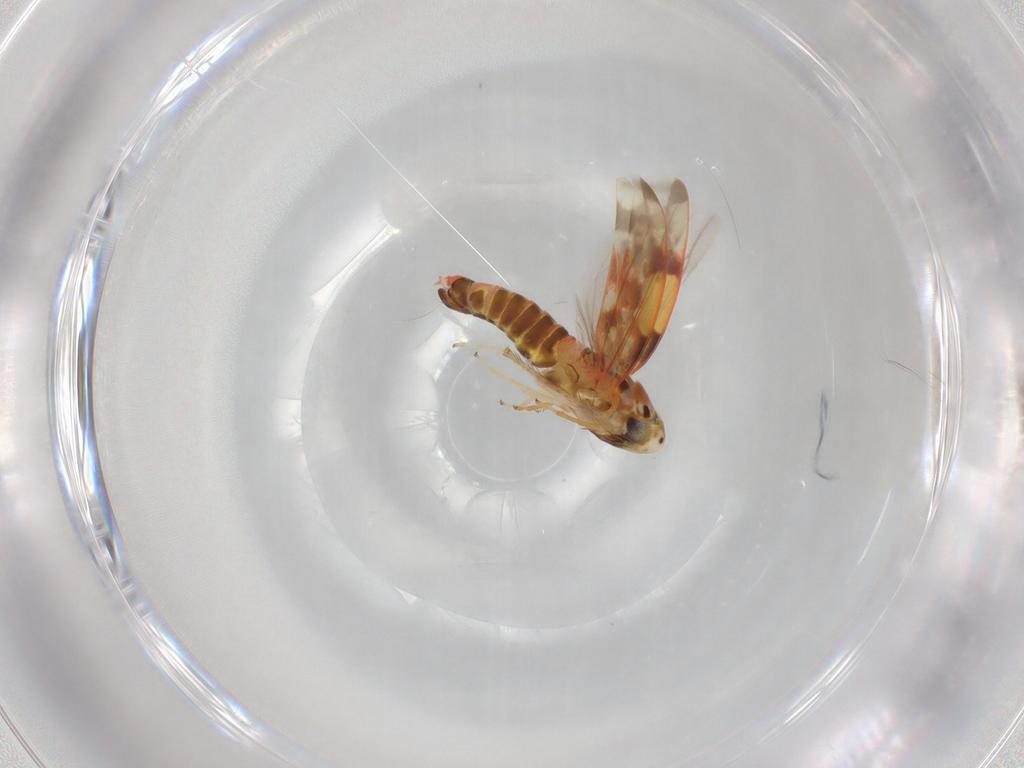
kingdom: Animalia
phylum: Arthropoda
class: Insecta
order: Hemiptera
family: Cicadellidae
